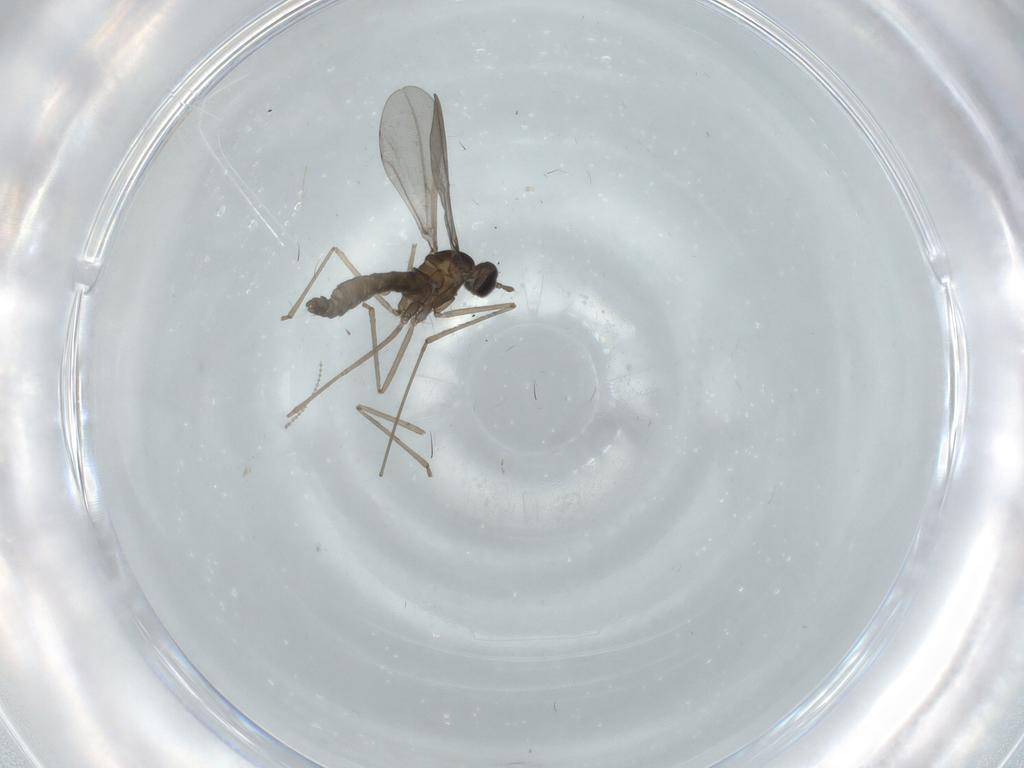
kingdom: Animalia
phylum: Arthropoda
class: Insecta
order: Diptera
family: Cecidomyiidae
